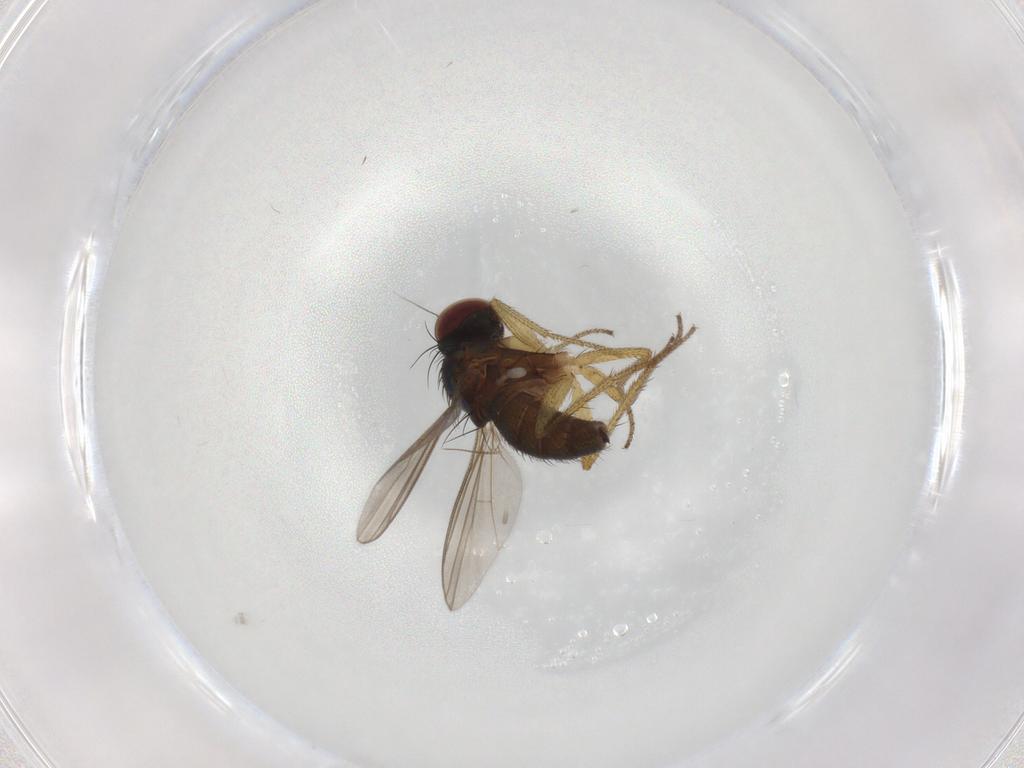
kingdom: Animalia
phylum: Arthropoda
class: Insecta
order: Diptera
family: Dolichopodidae
